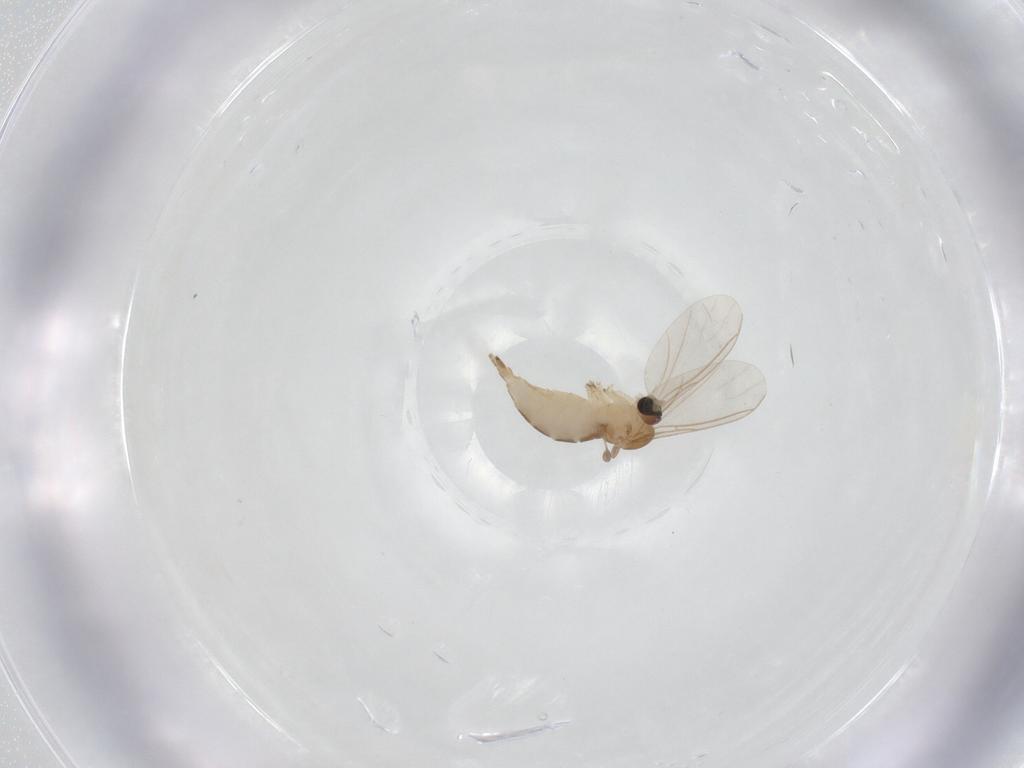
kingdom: Animalia
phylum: Arthropoda
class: Insecta
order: Diptera
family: Sciaridae
